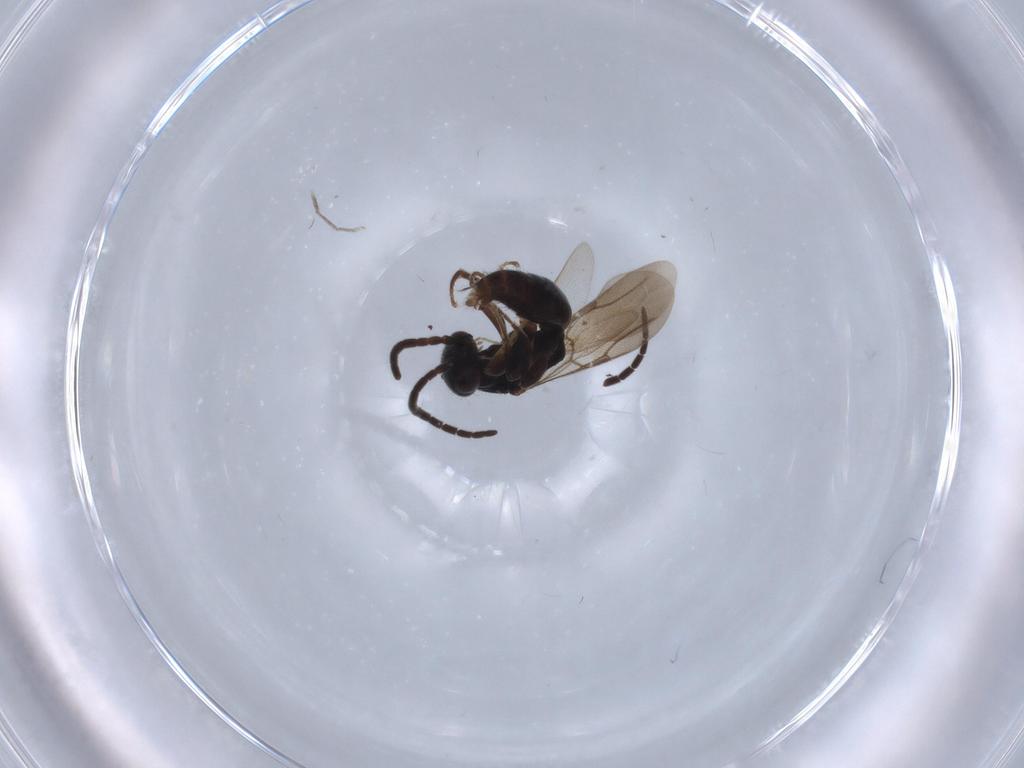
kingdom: Animalia
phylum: Arthropoda
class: Insecta
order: Hymenoptera
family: Bethylidae
